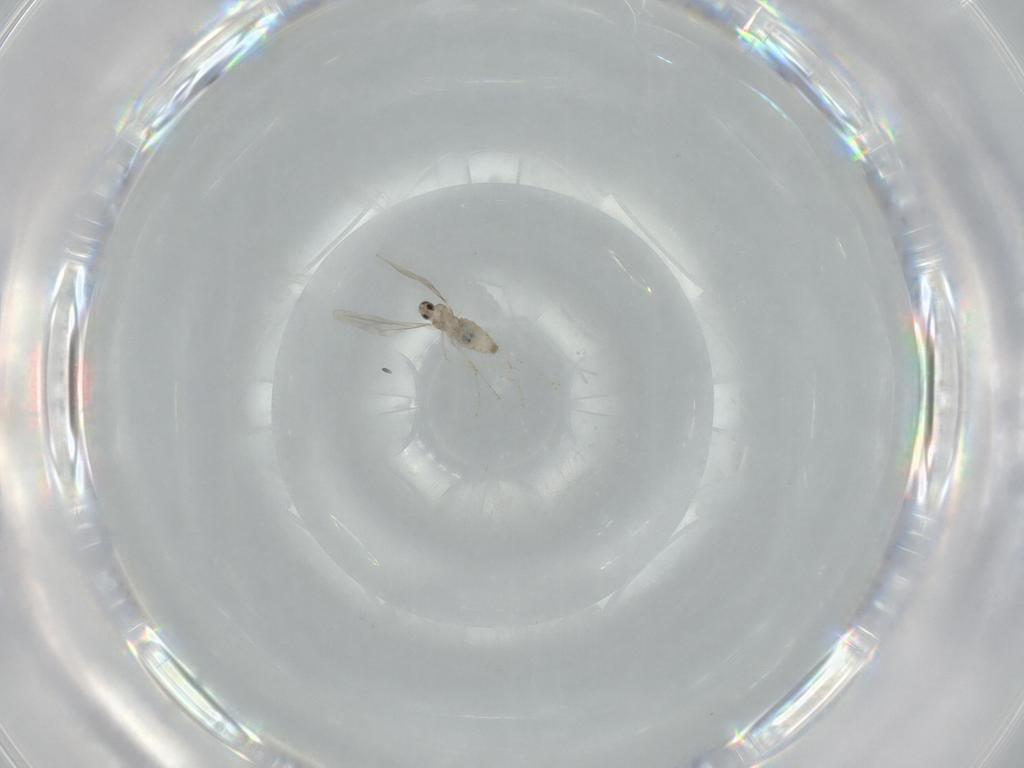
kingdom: Animalia
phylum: Arthropoda
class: Insecta
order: Diptera
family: Cecidomyiidae
